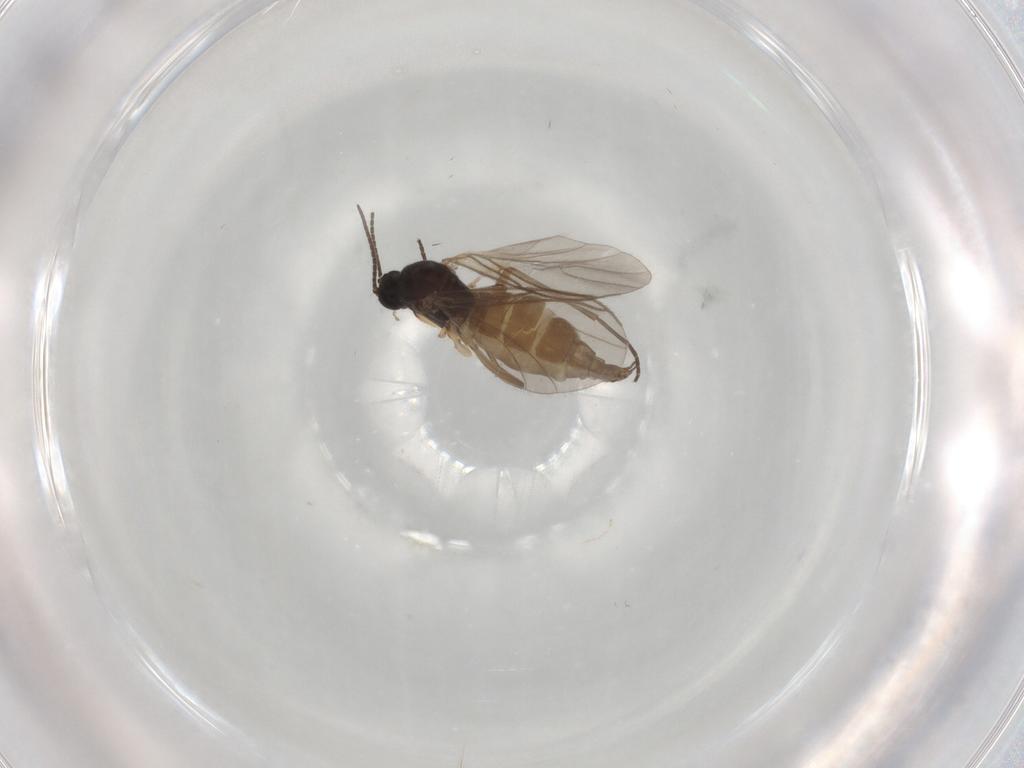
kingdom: Animalia
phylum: Arthropoda
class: Insecta
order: Diptera
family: Sciaridae
